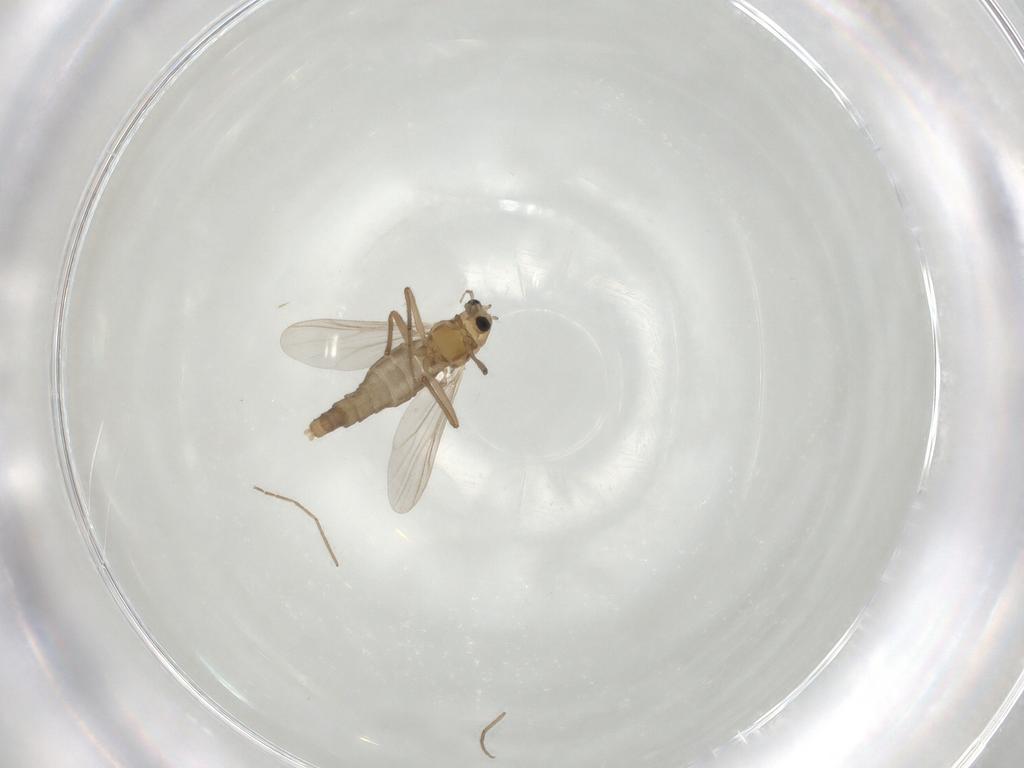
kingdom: Animalia
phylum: Arthropoda
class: Insecta
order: Diptera
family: Chironomidae
